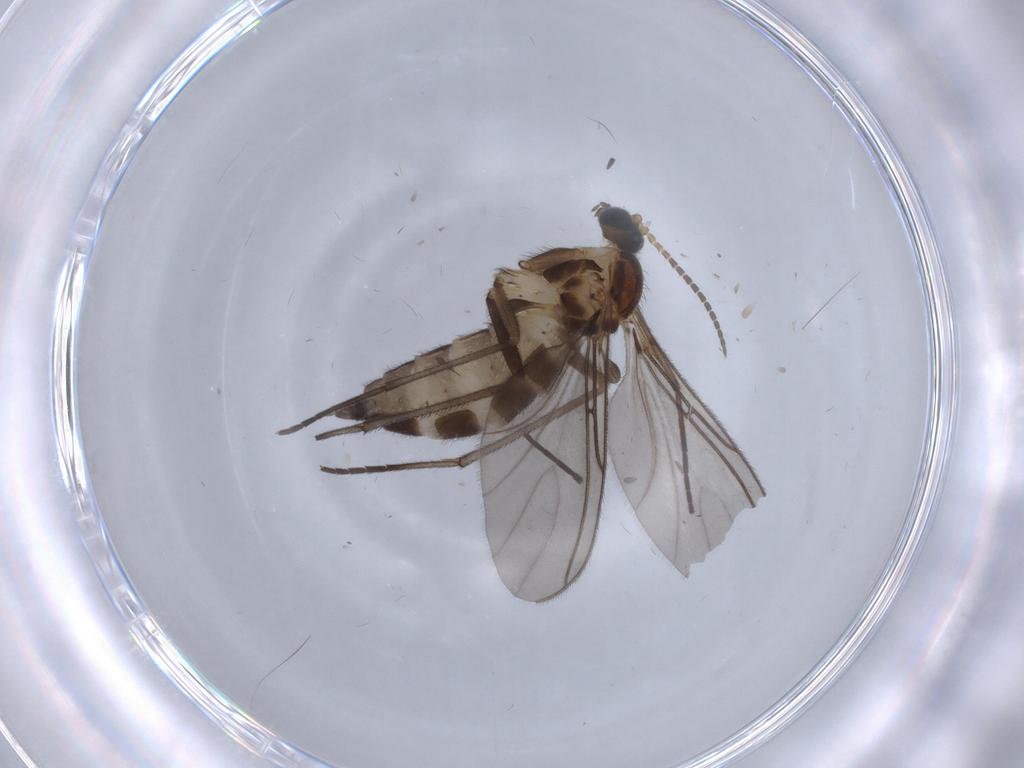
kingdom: Animalia
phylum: Arthropoda
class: Insecta
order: Diptera
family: Sciaridae
